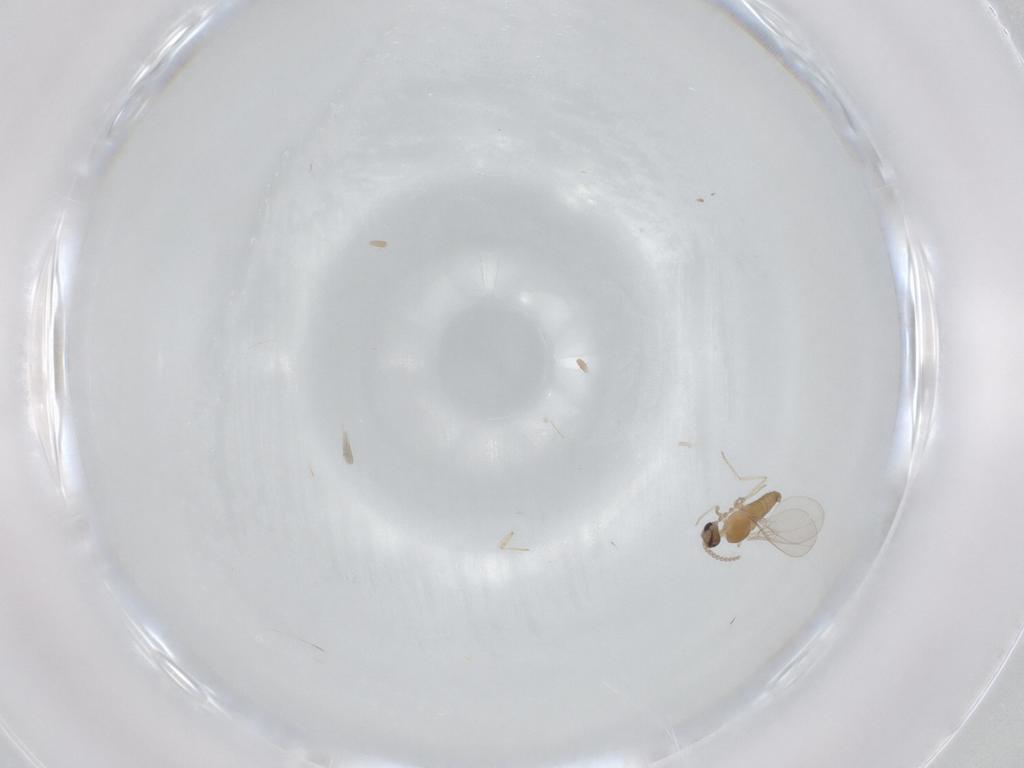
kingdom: Animalia
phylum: Arthropoda
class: Insecta
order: Diptera
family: Cecidomyiidae
